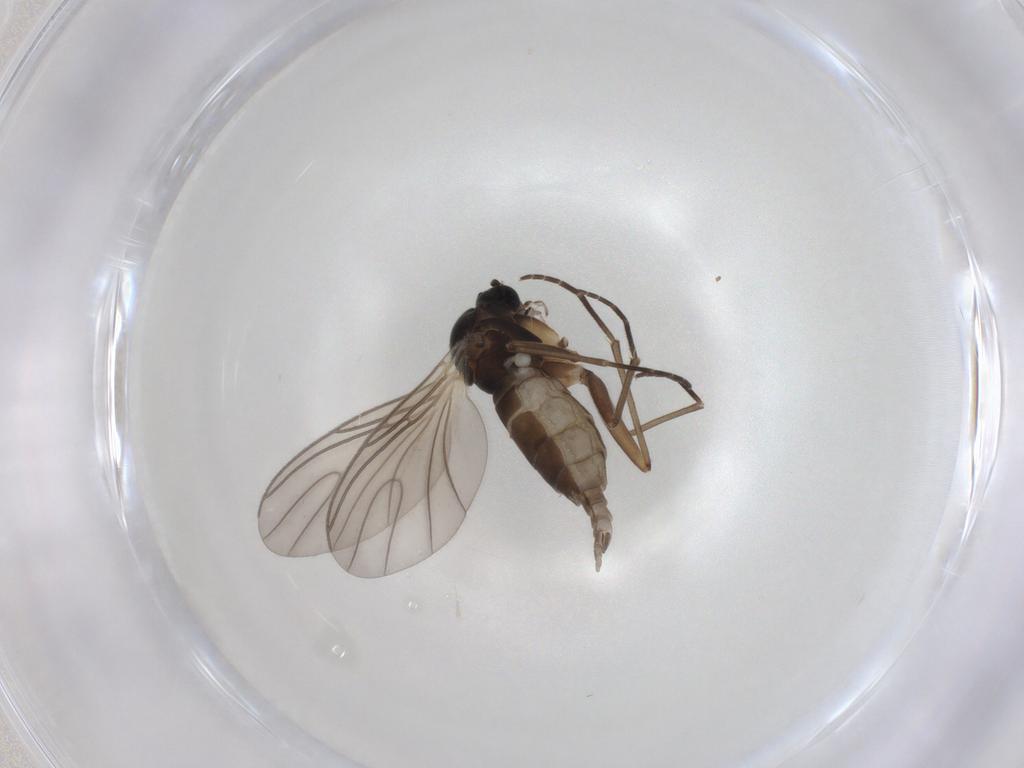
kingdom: Animalia
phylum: Arthropoda
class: Insecta
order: Diptera
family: Sciaridae
